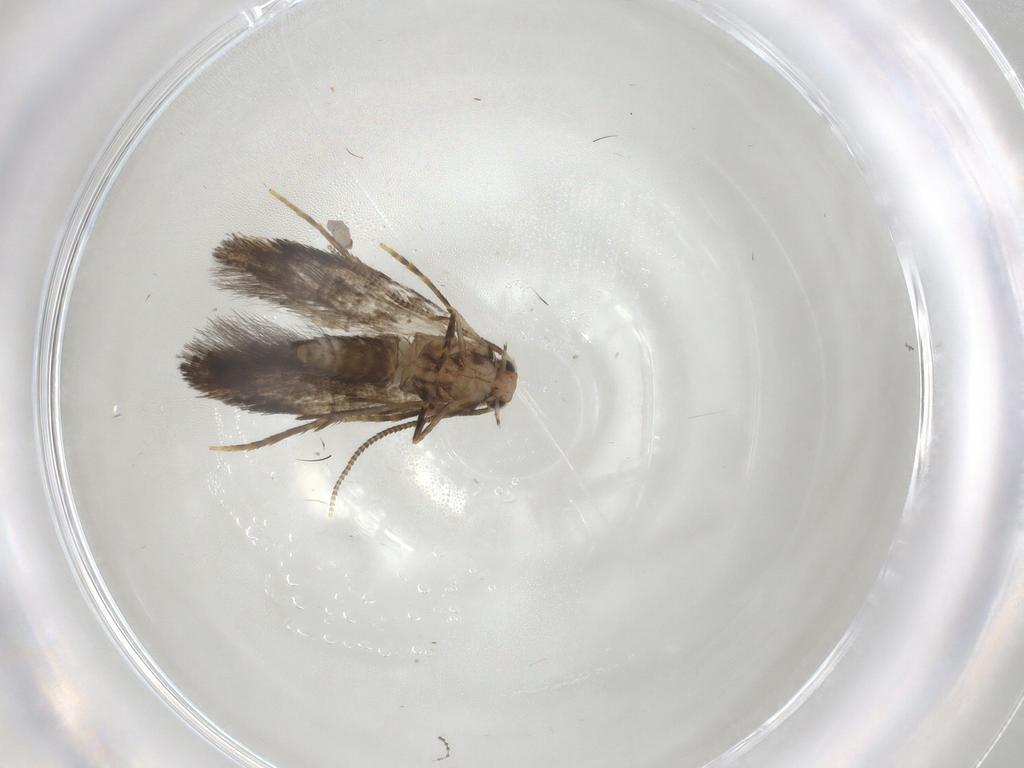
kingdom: Animalia
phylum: Arthropoda
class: Insecta
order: Lepidoptera
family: Tineidae
